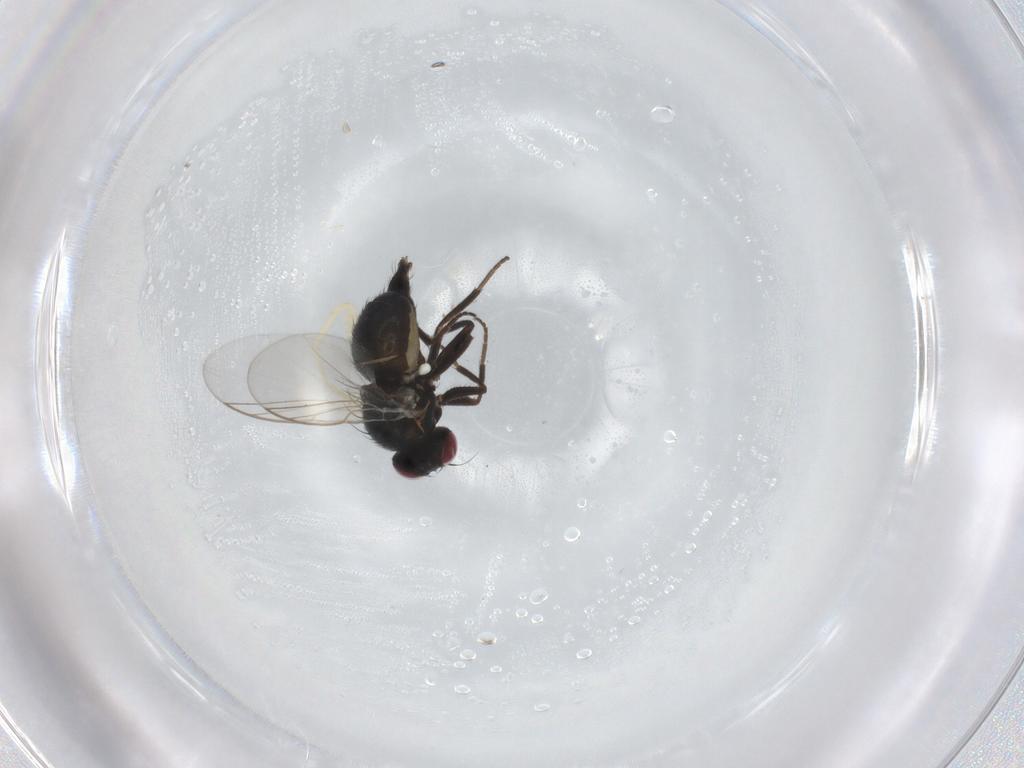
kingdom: Animalia
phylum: Arthropoda
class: Insecta
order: Diptera
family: Agromyzidae
